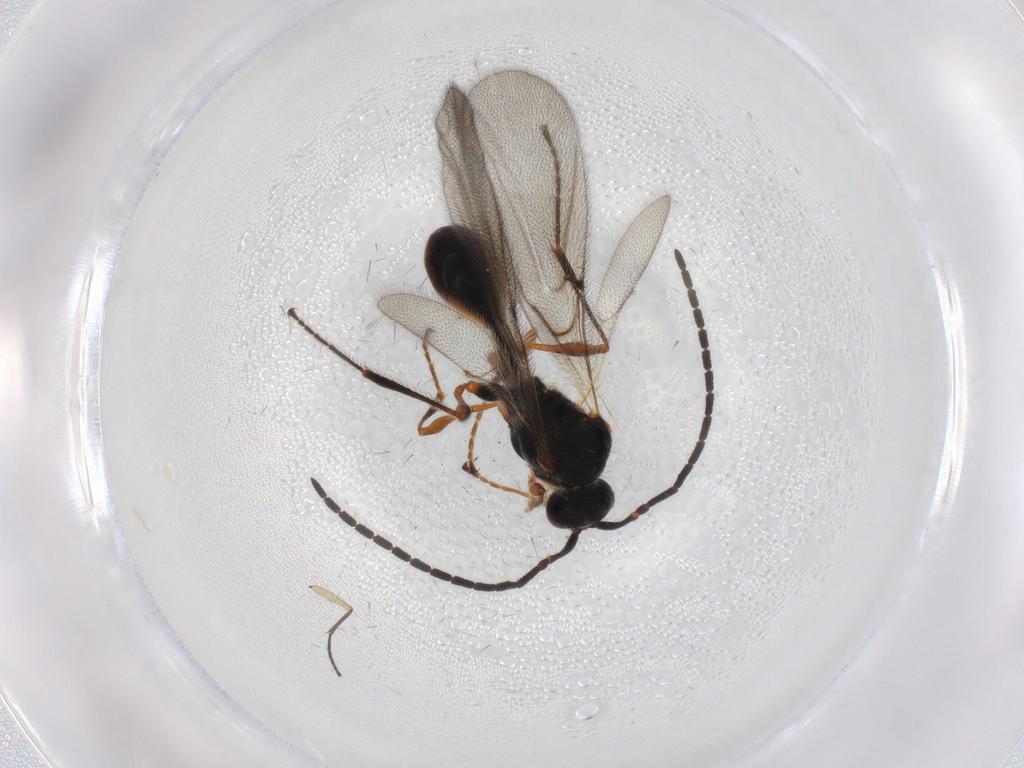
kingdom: Animalia
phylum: Arthropoda
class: Insecta
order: Hymenoptera
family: Diapriidae
